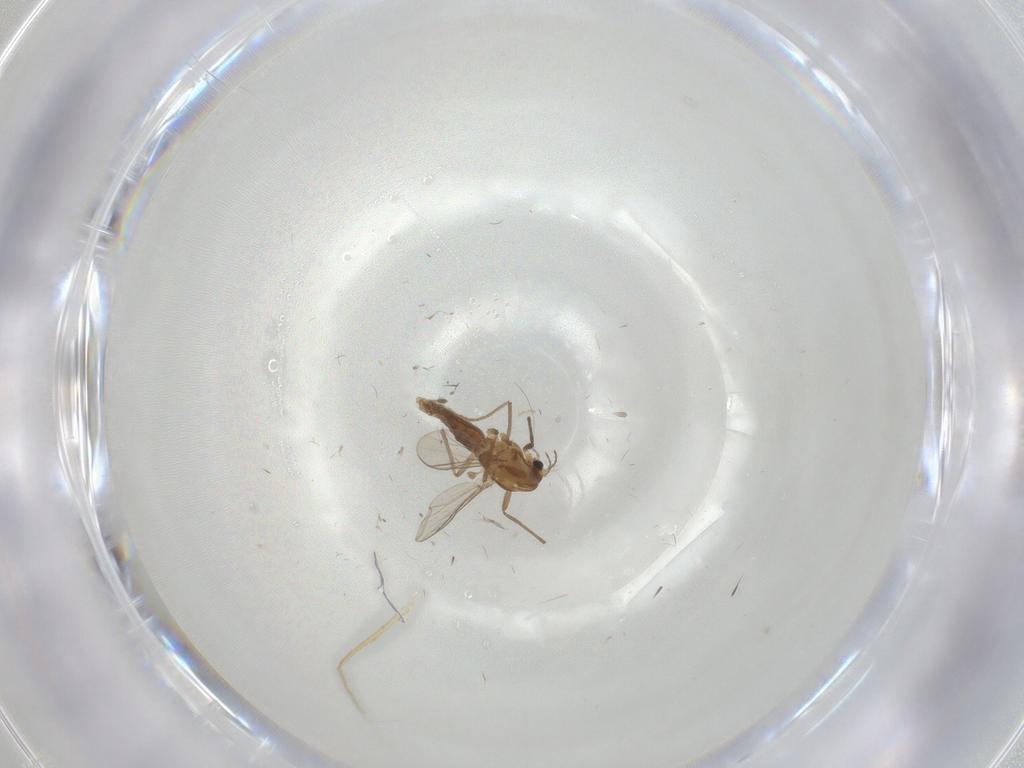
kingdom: Animalia
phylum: Arthropoda
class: Insecta
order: Diptera
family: Chironomidae
